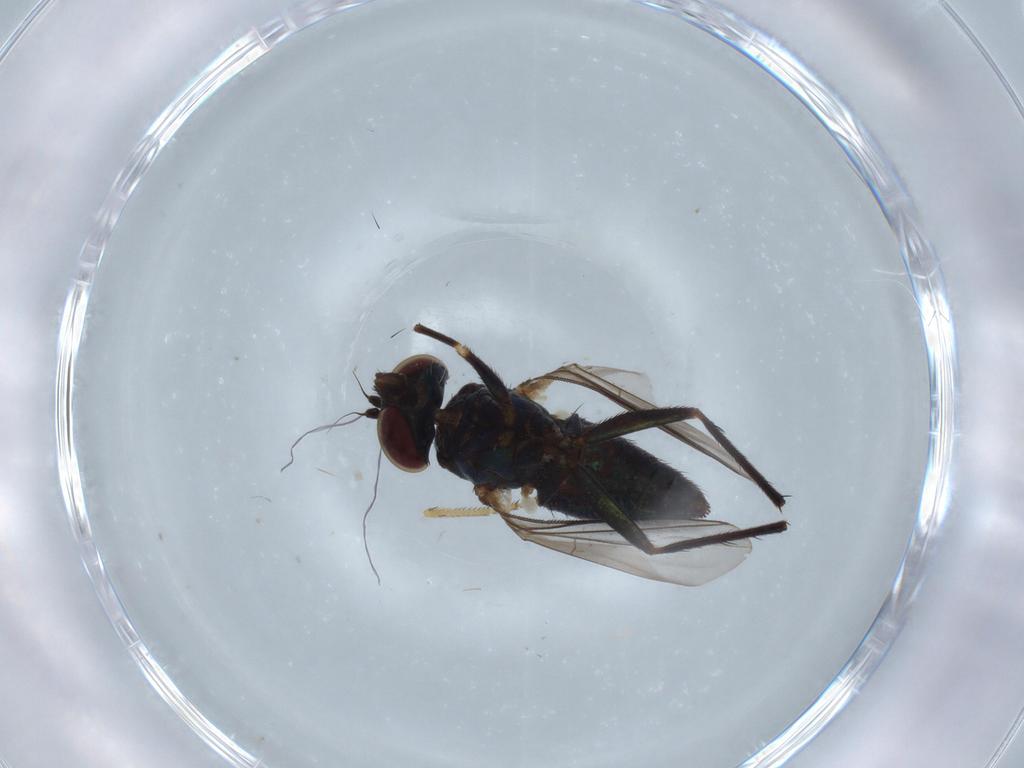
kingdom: Animalia
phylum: Arthropoda
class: Insecta
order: Diptera
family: Dolichopodidae
